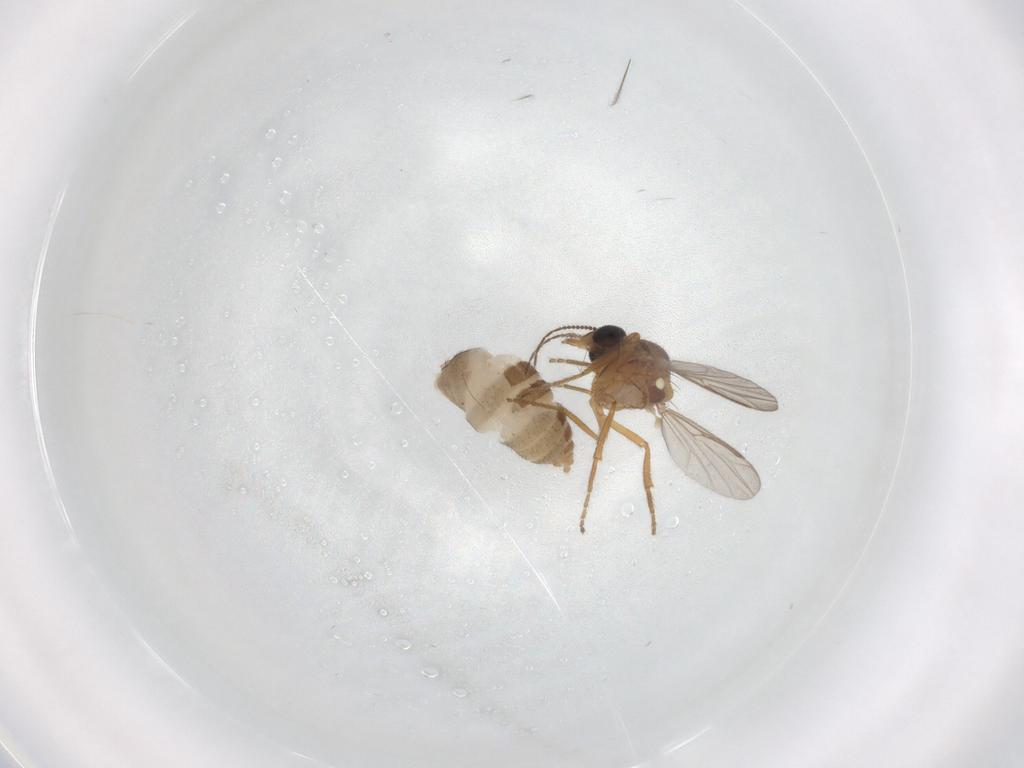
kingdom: Animalia
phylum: Arthropoda
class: Insecta
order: Diptera
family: Ceratopogonidae
